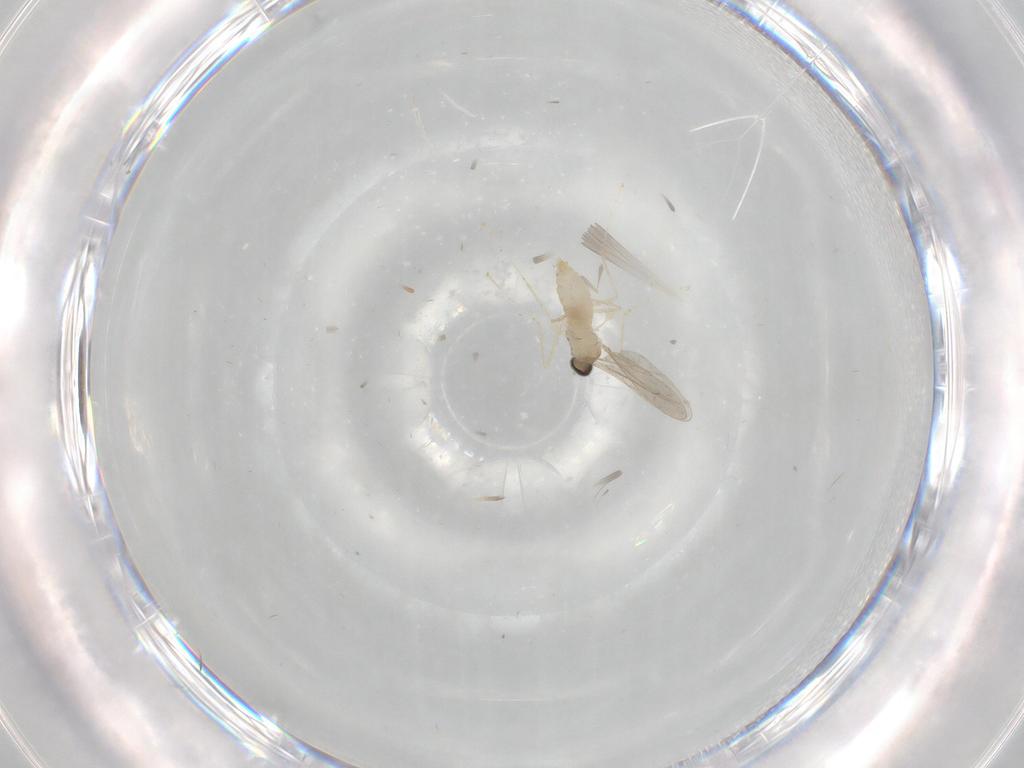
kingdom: Animalia
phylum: Arthropoda
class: Insecta
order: Diptera
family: Cecidomyiidae
